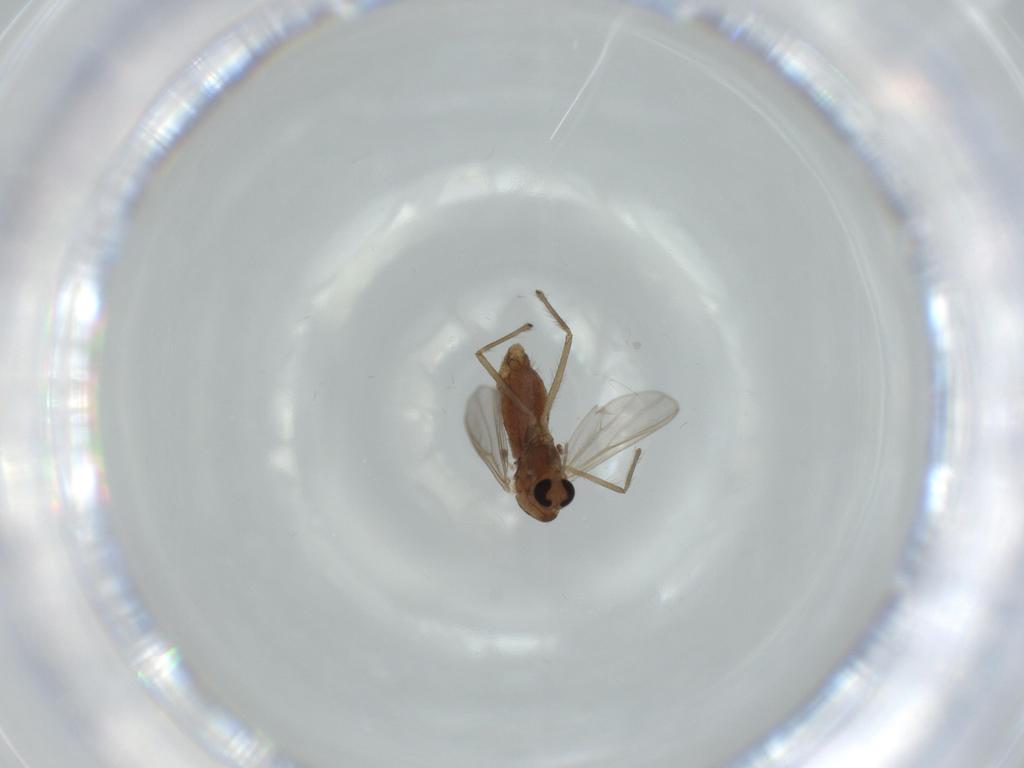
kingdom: Animalia
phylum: Arthropoda
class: Insecta
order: Diptera
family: Chironomidae
